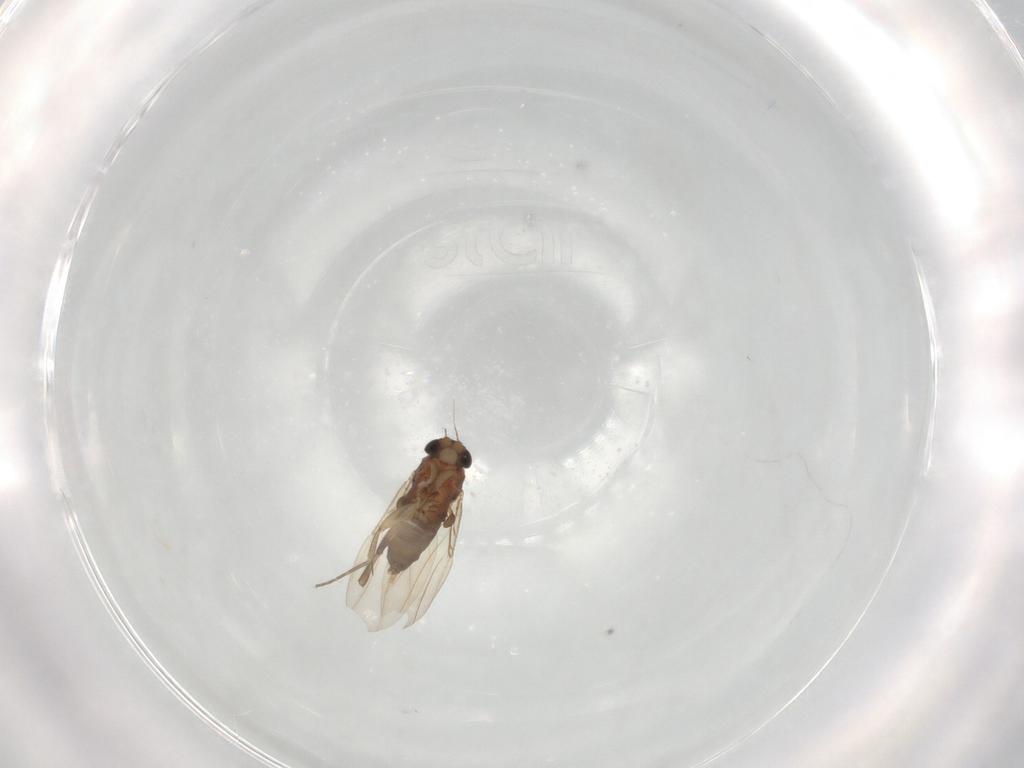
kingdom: Animalia
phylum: Arthropoda
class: Insecta
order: Diptera
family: Phoridae
